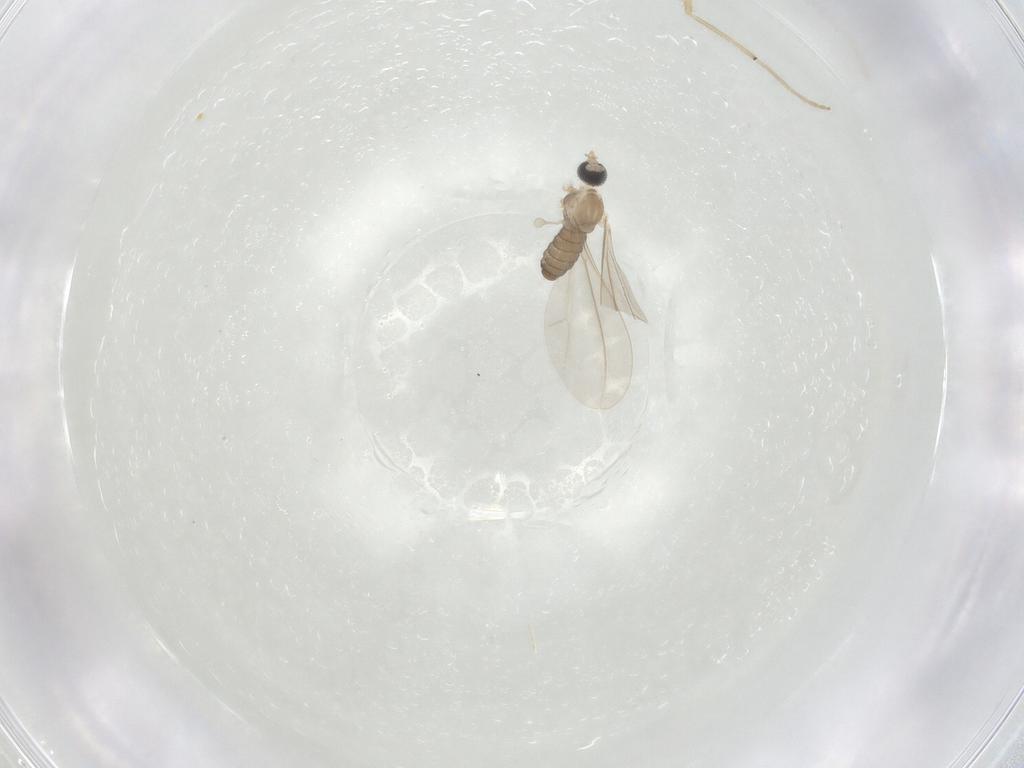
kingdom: Animalia
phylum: Arthropoda
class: Insecta
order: Diptera
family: Cecidomyiidae
